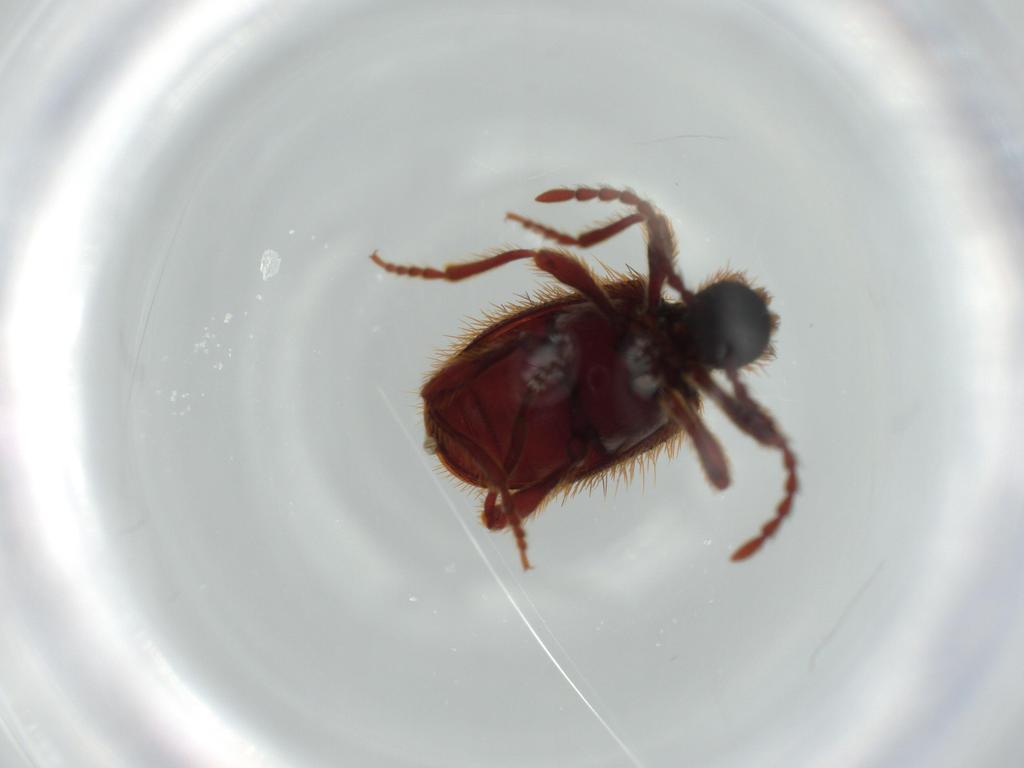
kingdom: Animalia
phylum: Arthropoda
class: Insecta
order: Coleoptera
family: Ptinidae
